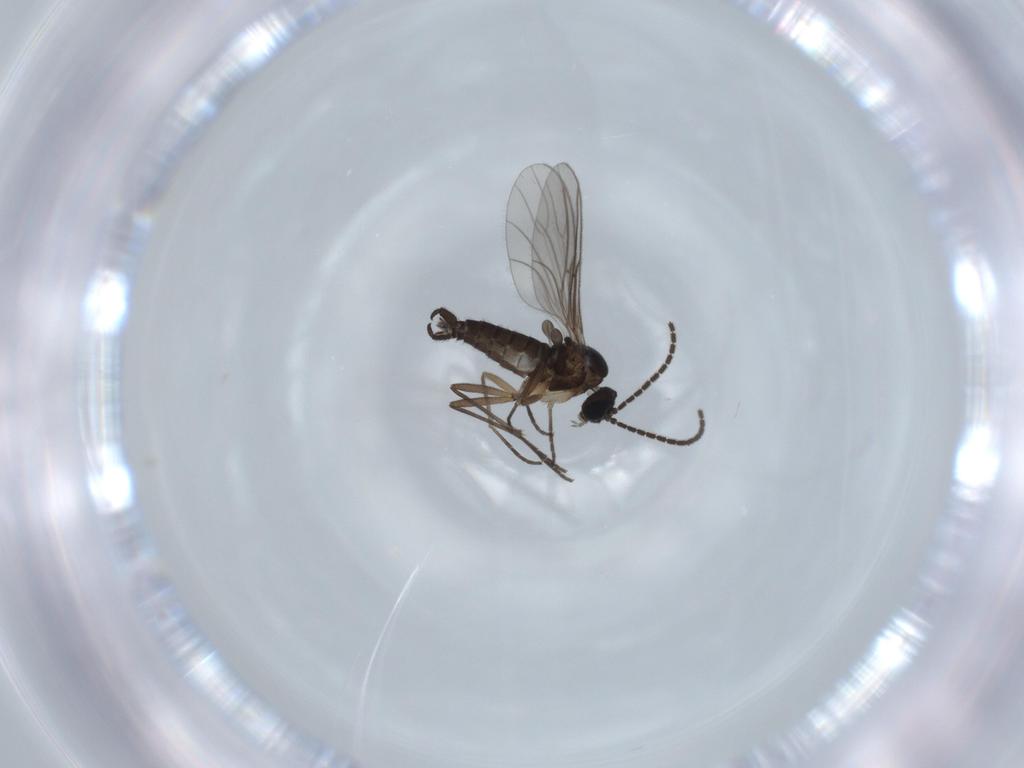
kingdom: Animalia
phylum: Arthropoda
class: Insecta
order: Diptera
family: Sciaridae
